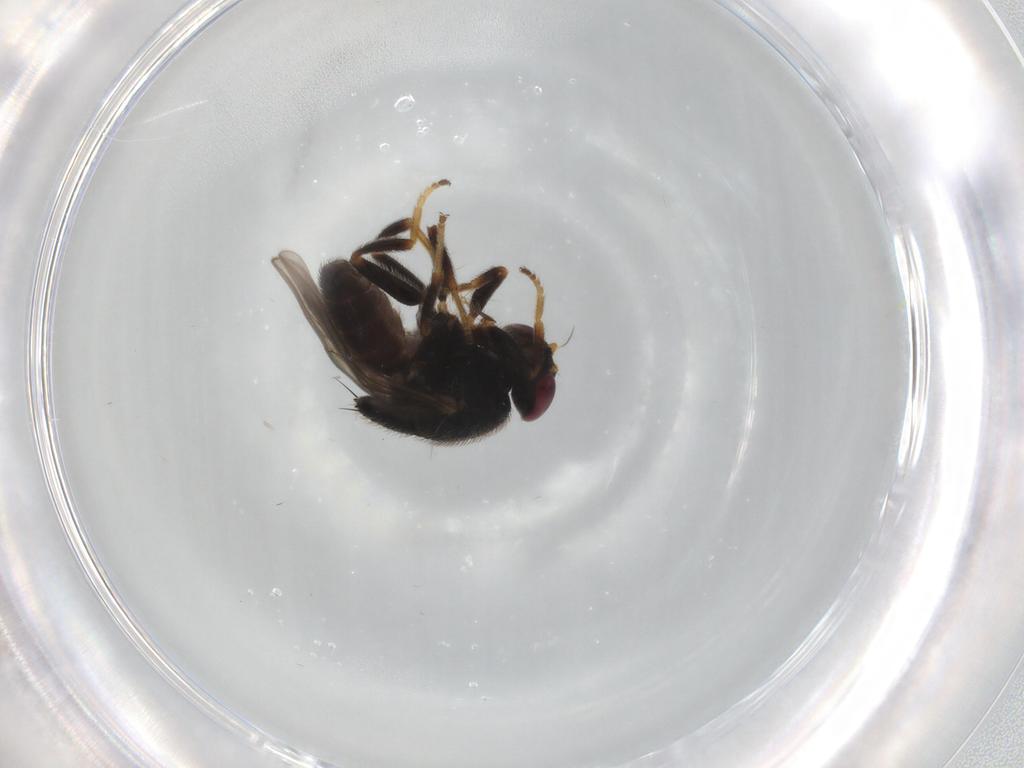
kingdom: Animalia
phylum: Arthropoda
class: Insecta
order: Diptera
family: Chloropidae
